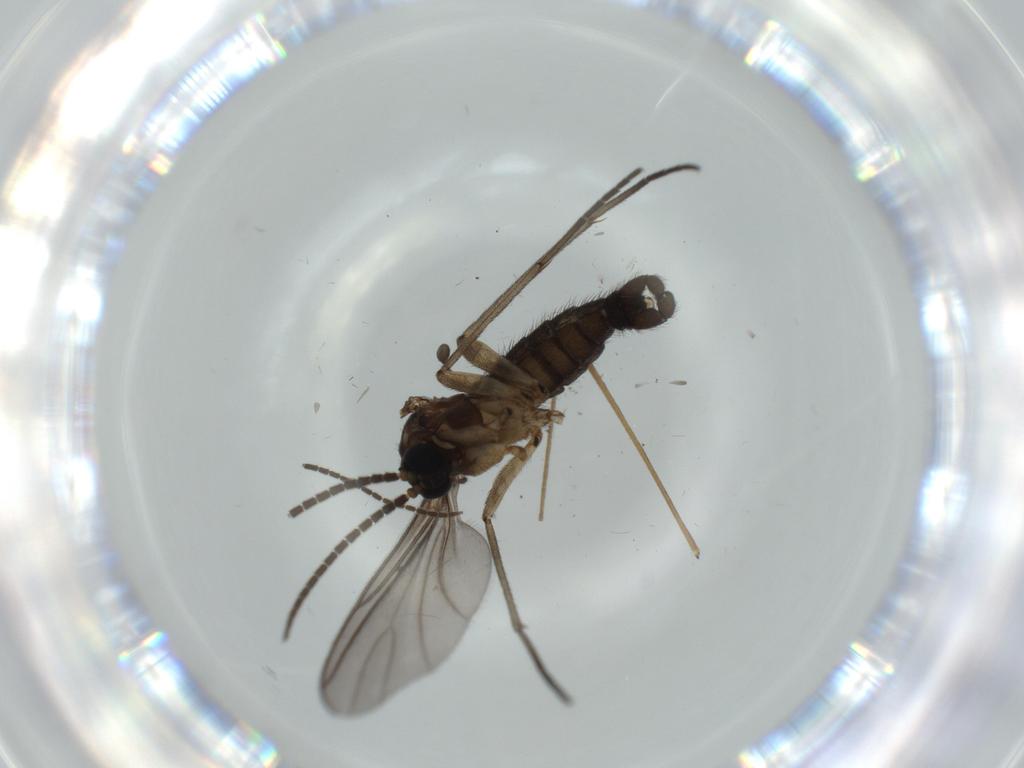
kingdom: Animalia
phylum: Arthropoda
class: Insecta
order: Diptera
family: Sciaridae
